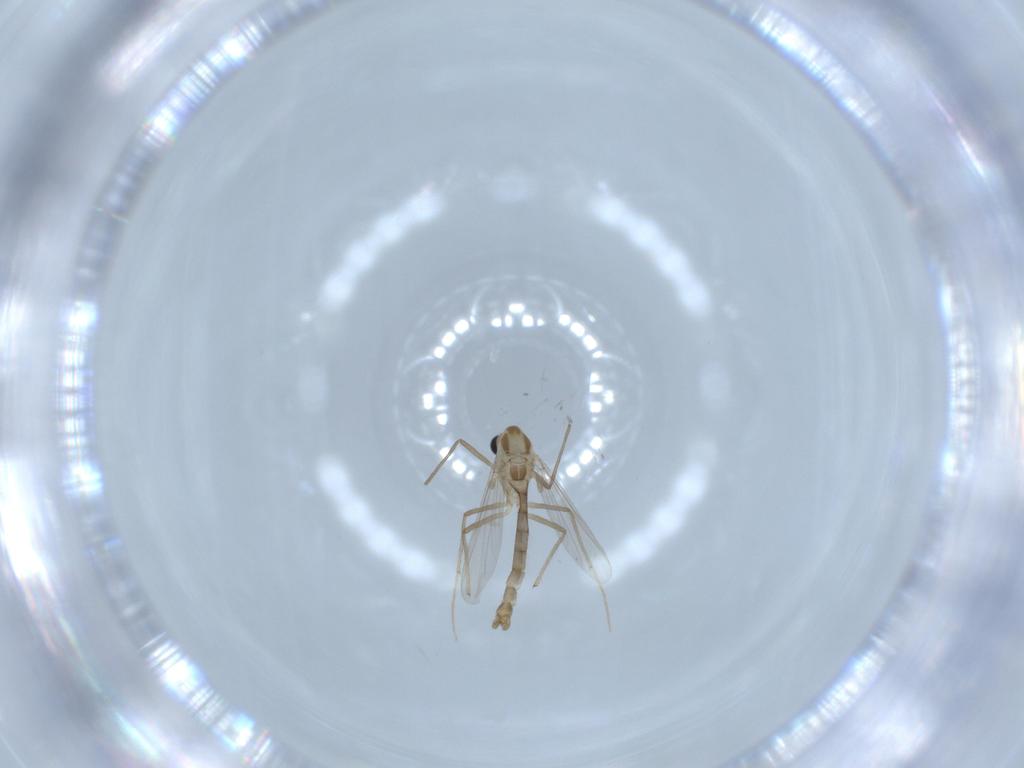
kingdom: Animalia
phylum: Arthropoda
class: Insecta
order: Diptera
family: Chironomidae
